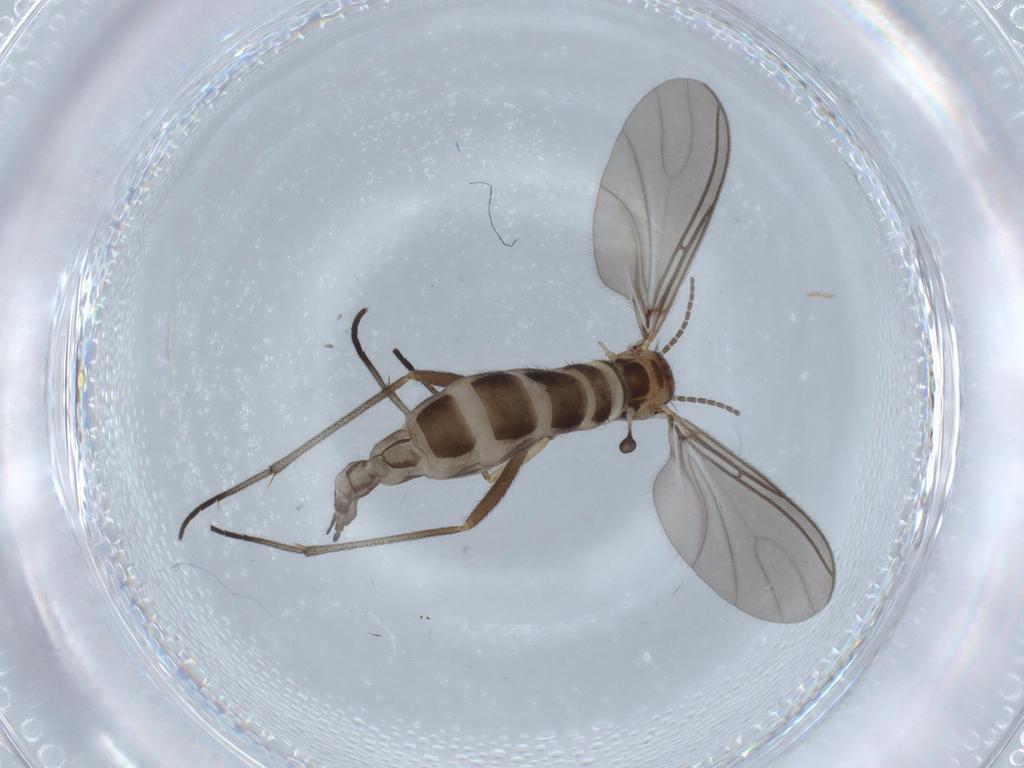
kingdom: Animalia
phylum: Arthropoda
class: Insecta
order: Diptera
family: Sciaridae
